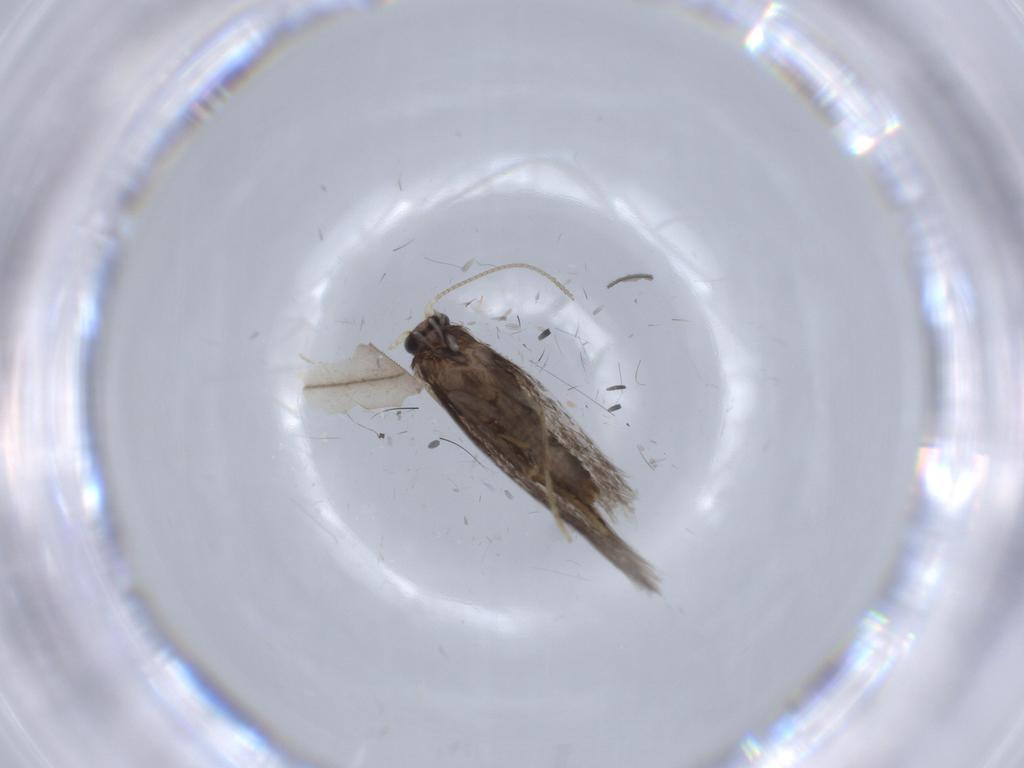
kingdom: Animalia
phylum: Arthropoda
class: Insecta
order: Lepidoptera
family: Nepticulidae
